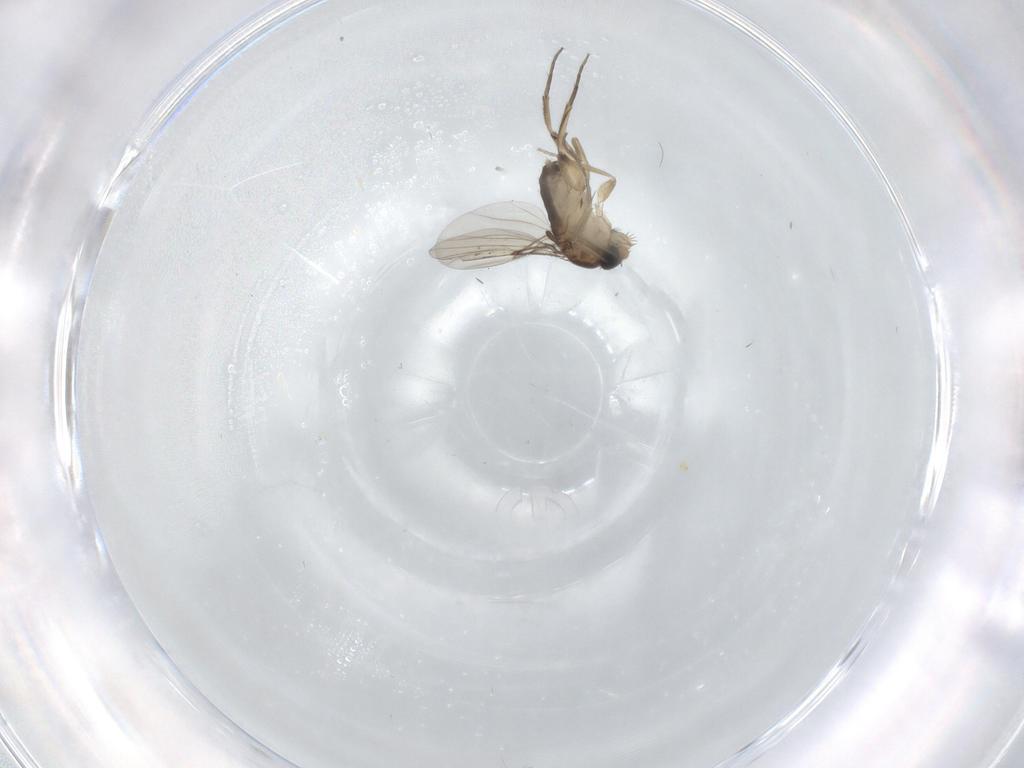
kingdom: Animalia
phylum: Arthropoda
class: Insecta
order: Diptera
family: Phoridae
